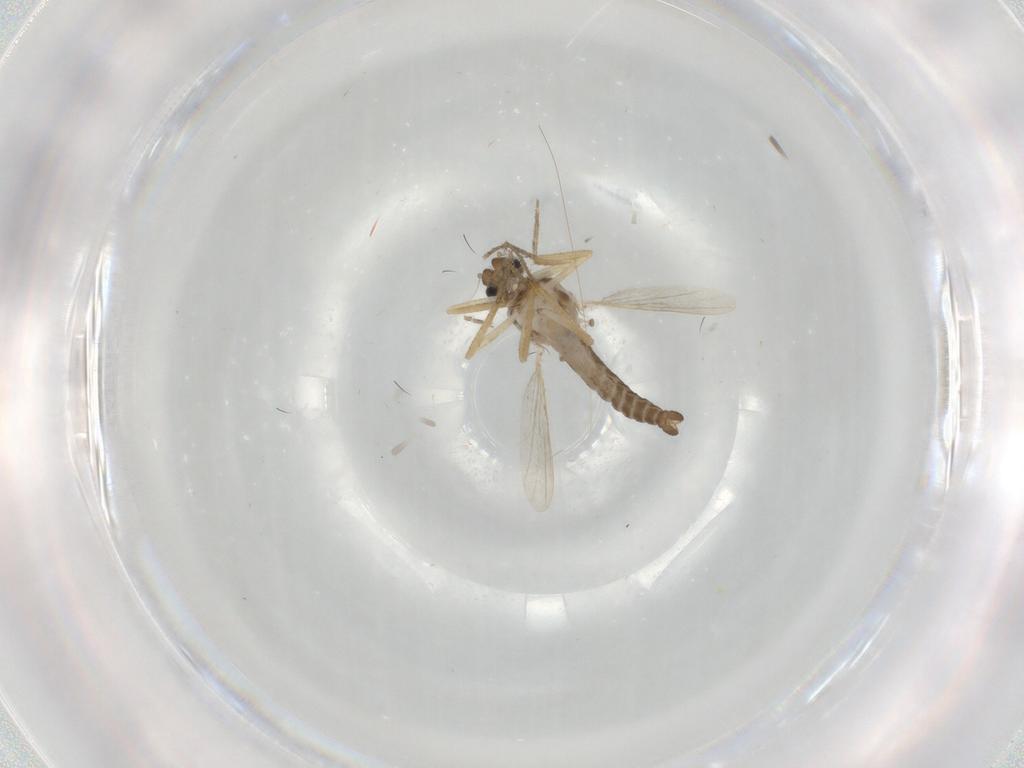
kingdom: Animalia
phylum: Arthropoda
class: Insecta
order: Diptera
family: Ceratopogonidae
